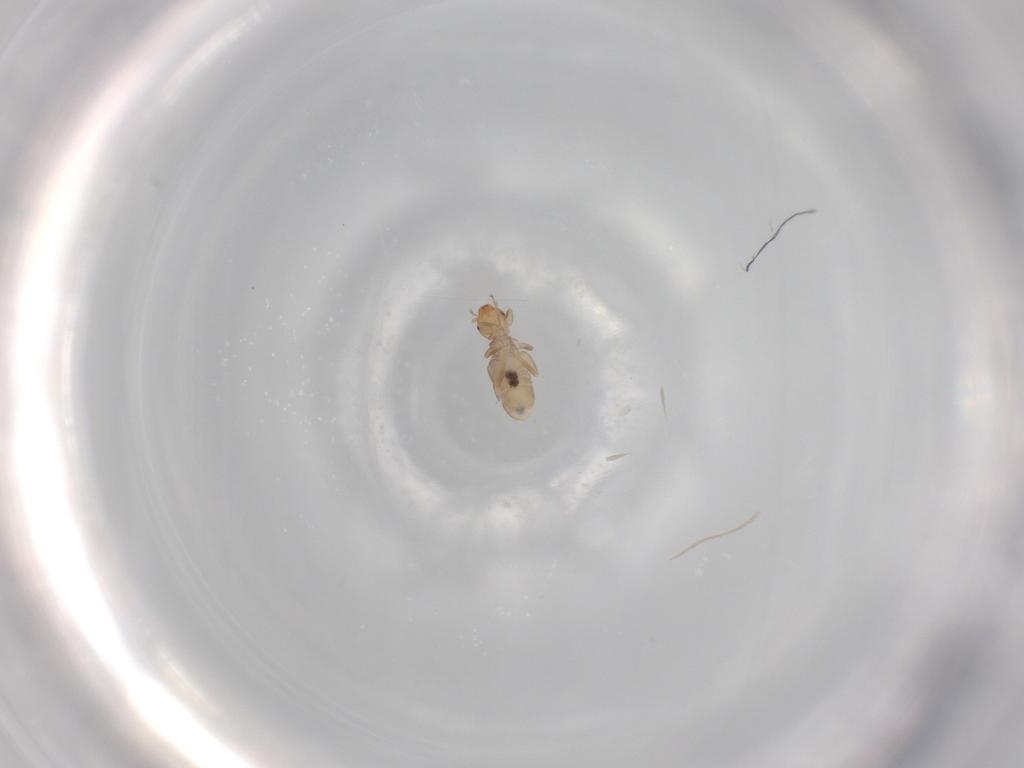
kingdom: Animalia
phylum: Arthropoda
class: Insecta
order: Psocodea
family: Liposcelididae
